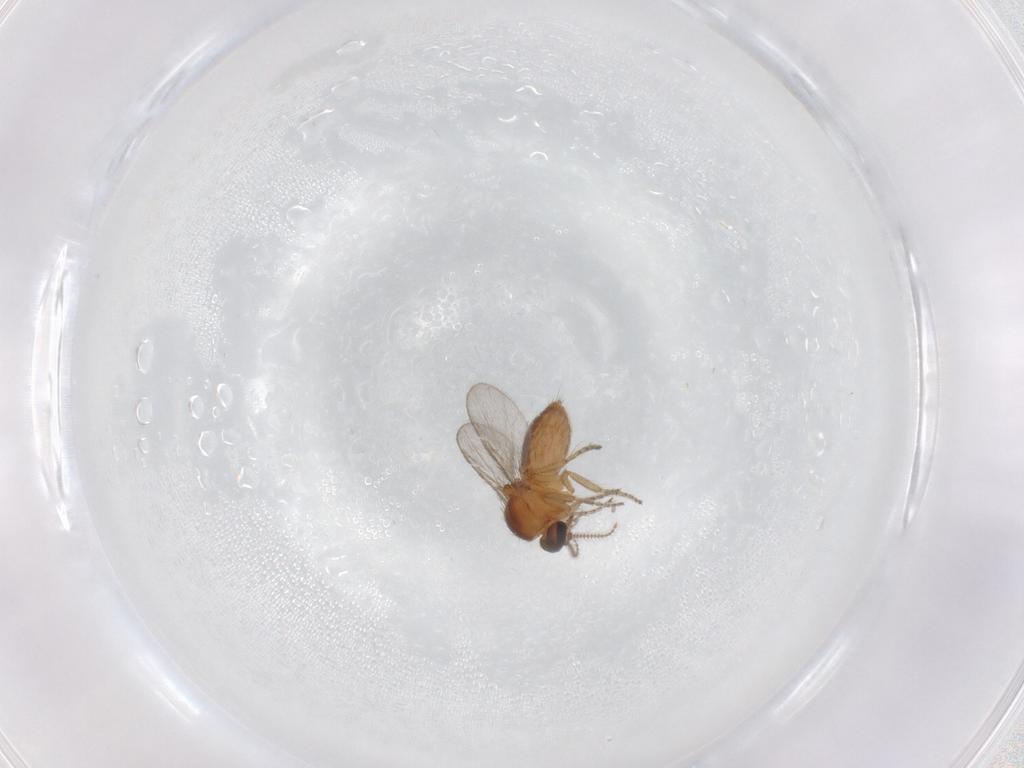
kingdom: Animalia
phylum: Arthropoda
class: Insecta
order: Diptera
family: Ceratopogonidae
